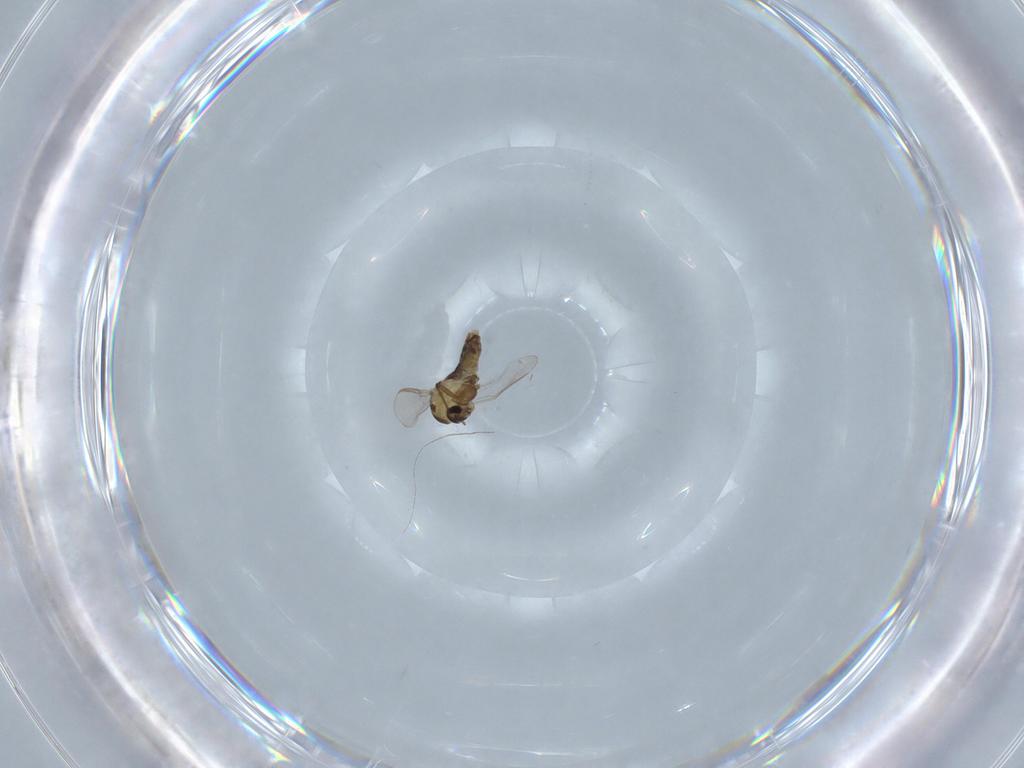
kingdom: Animalia
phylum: Arthropoda
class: Insecta
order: Diptera
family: Chironomidae
